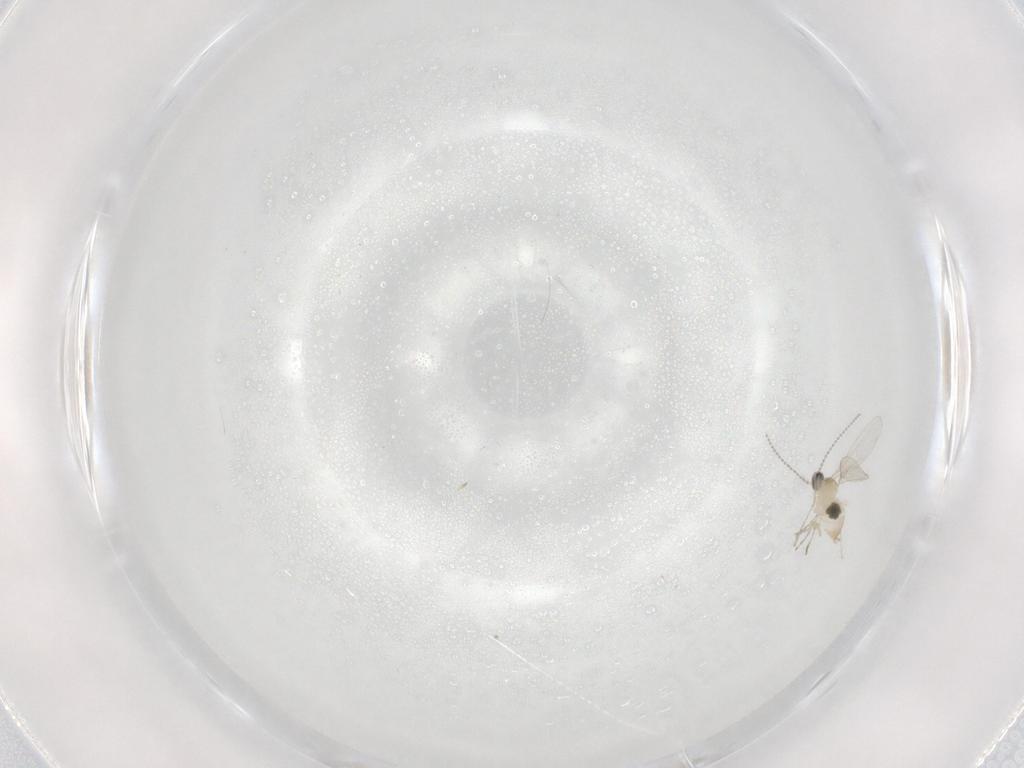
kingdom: Animalia
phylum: Arthropoda
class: Insecta
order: Diptera
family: Cecidomyiidae
